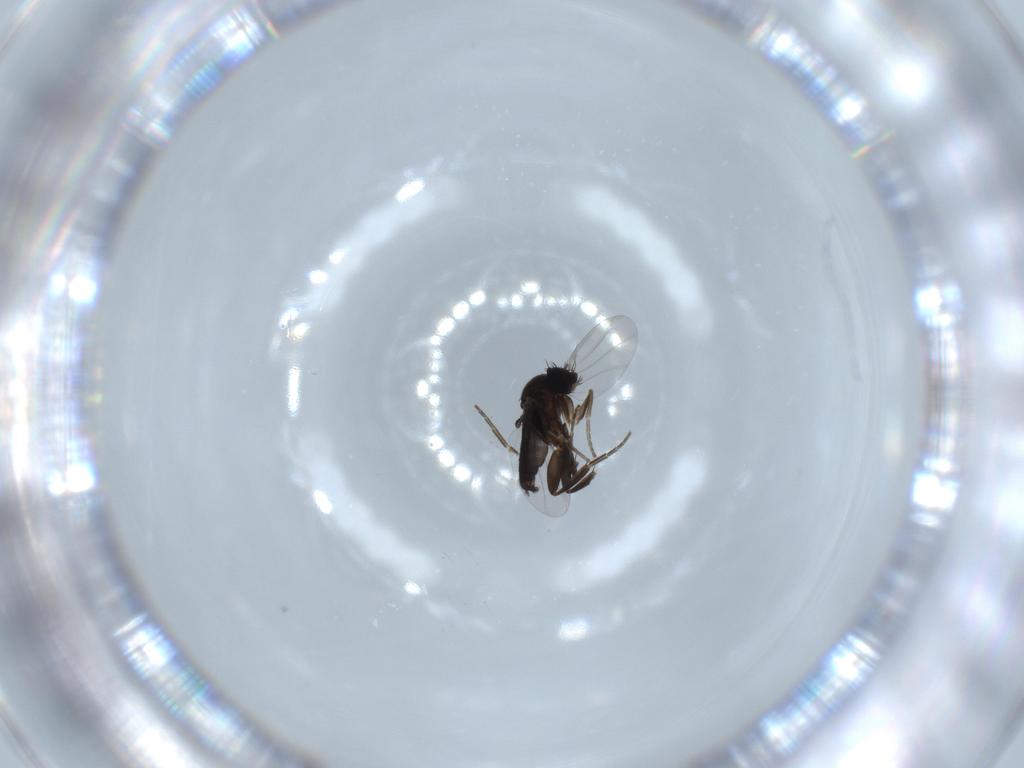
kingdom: Animalia
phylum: Arthropoda
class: Insecta
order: Diptera
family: Phoridae
